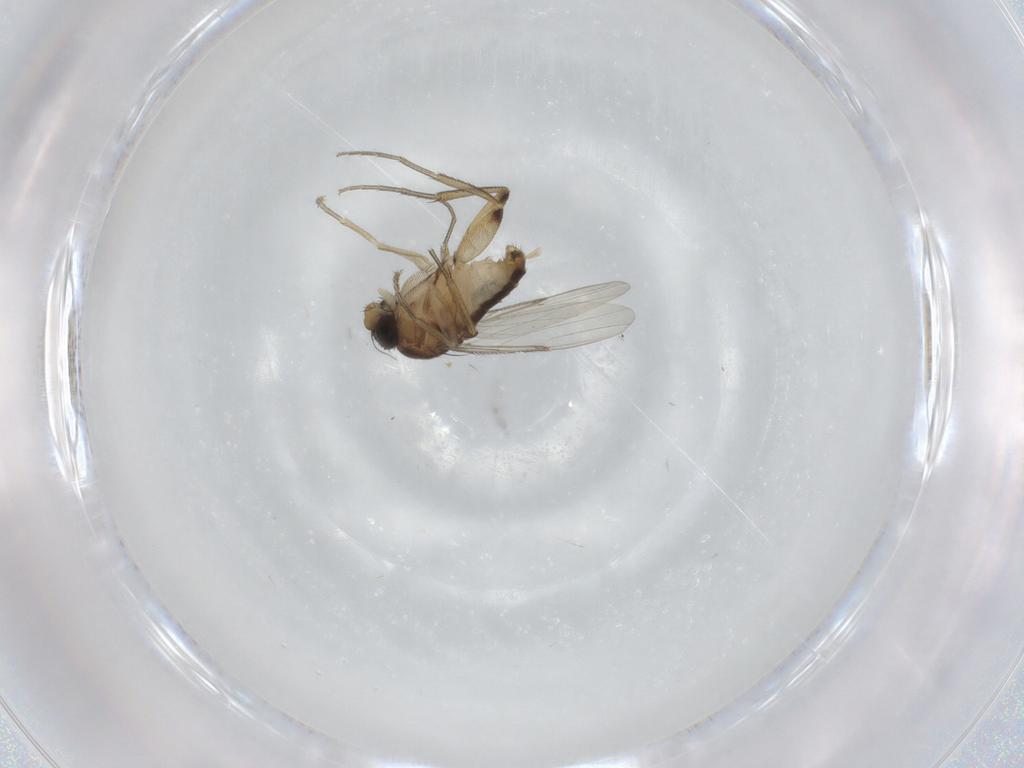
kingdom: Animalia
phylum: Arthropoda
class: Insecta
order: Diptera
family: Phoridae
